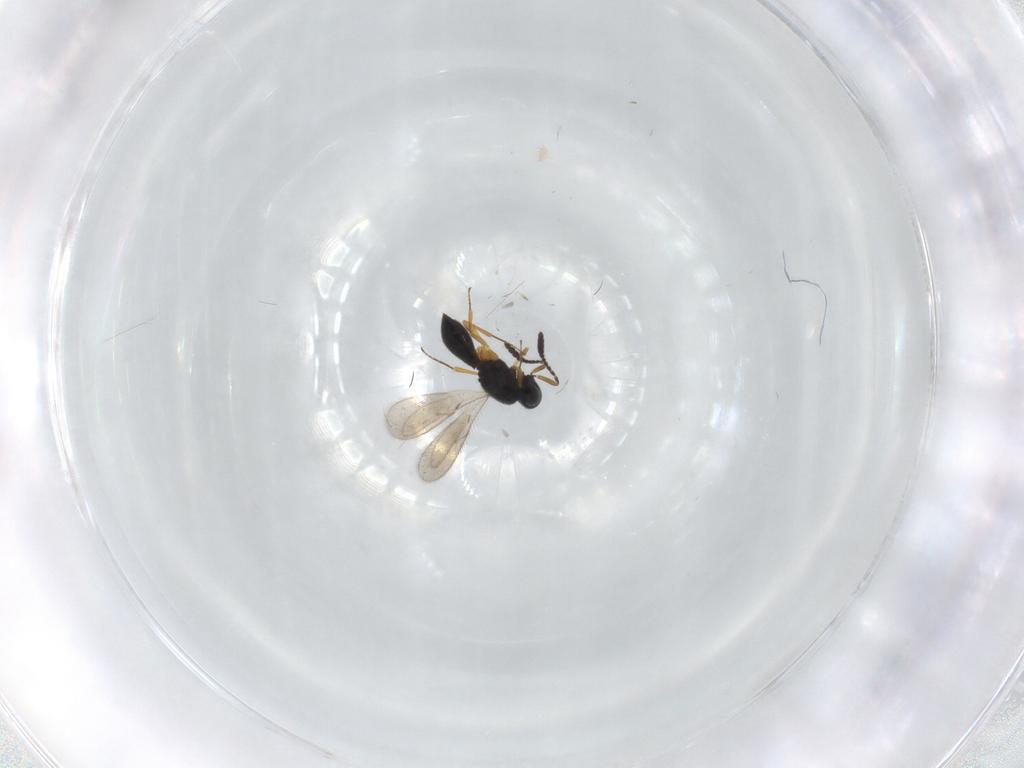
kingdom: Animalia
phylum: Arthropoda
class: Insecta
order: Hymenoptera
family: Scelionidae
